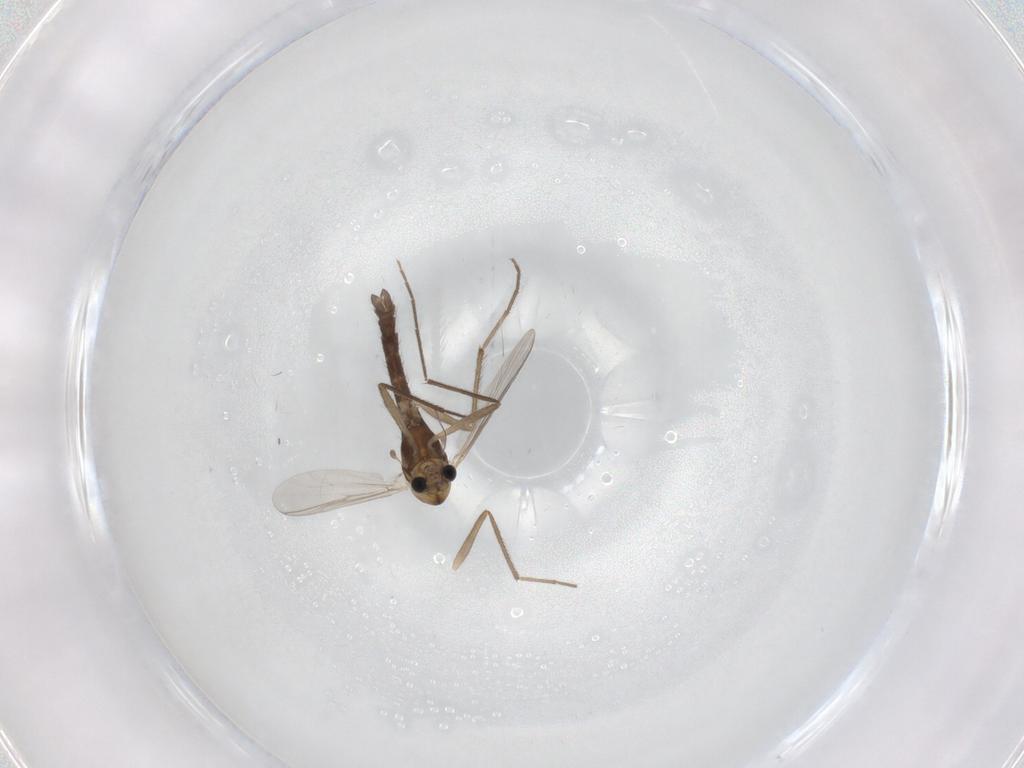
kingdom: Animalia
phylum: Arthropoda
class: Insecta
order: Diptera
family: Chironomidae
